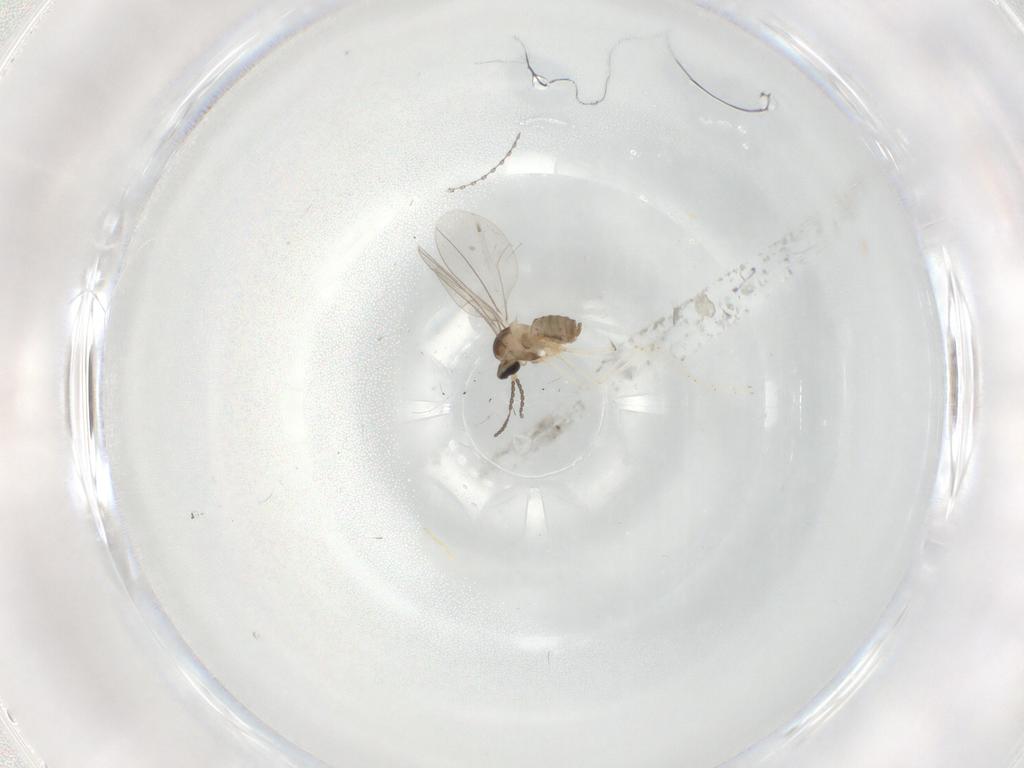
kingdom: Animalia
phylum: Arthropoda
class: Insecta
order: Diptera
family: Cecidomyiidae
